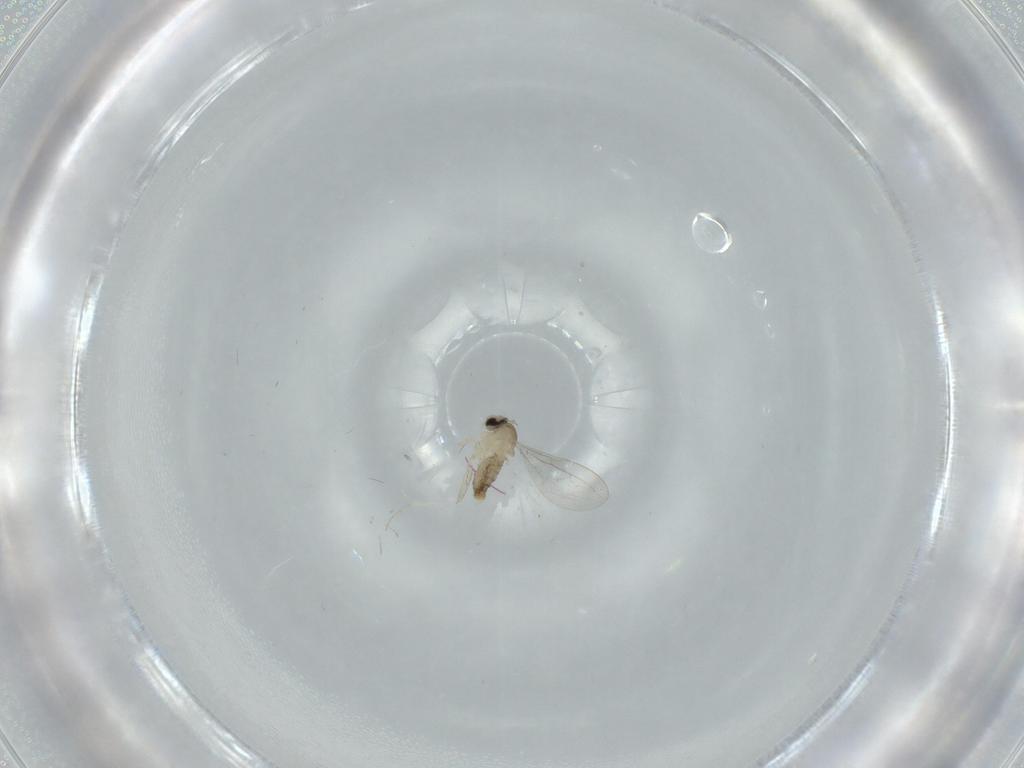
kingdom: Animalia
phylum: Arthropoda
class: Insecta
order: Diptera
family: Cecidomyiidae
